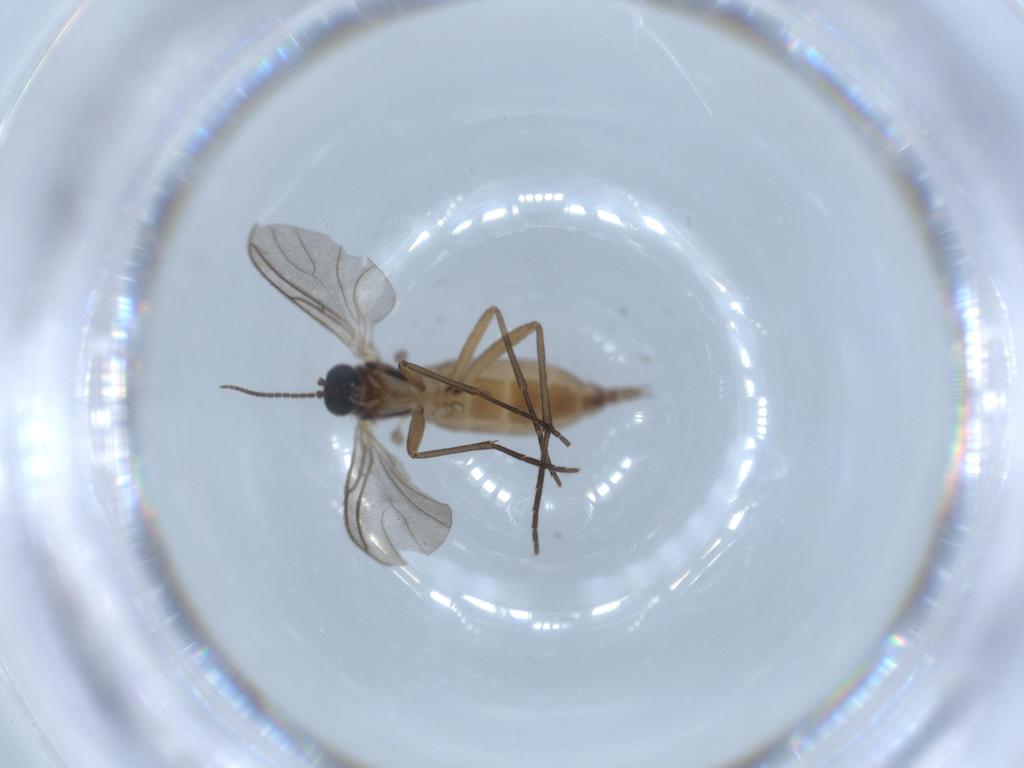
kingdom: Animalia
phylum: Arthropoda
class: Insecta
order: Diptera
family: Sciaridae
